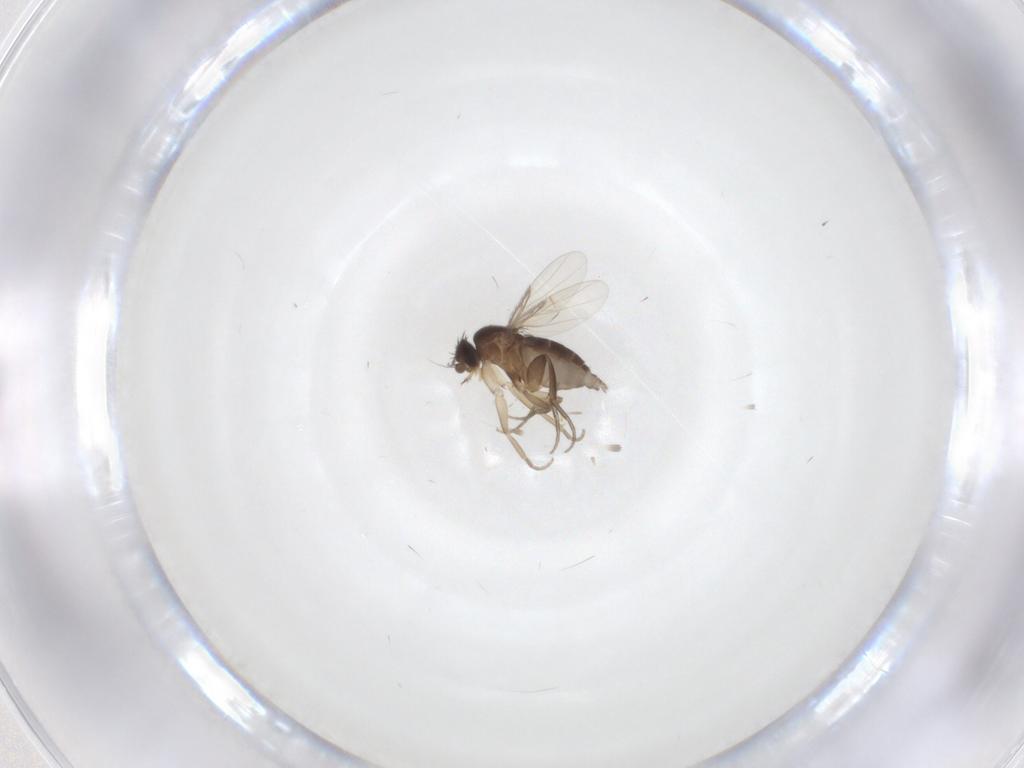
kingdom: Animalia
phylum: Arthropoda
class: Insecta
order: Diptera
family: Phoridae
